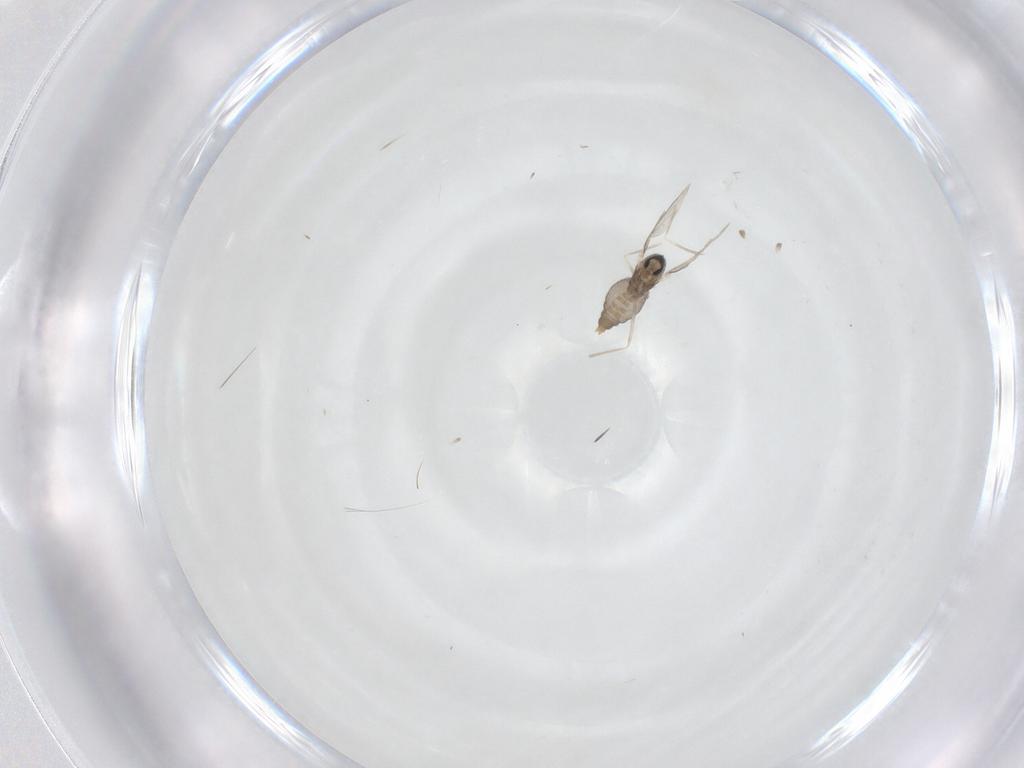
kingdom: Animalia
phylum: Arthropoda
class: Insecta
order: Diptera
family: Cecidomyiidae
